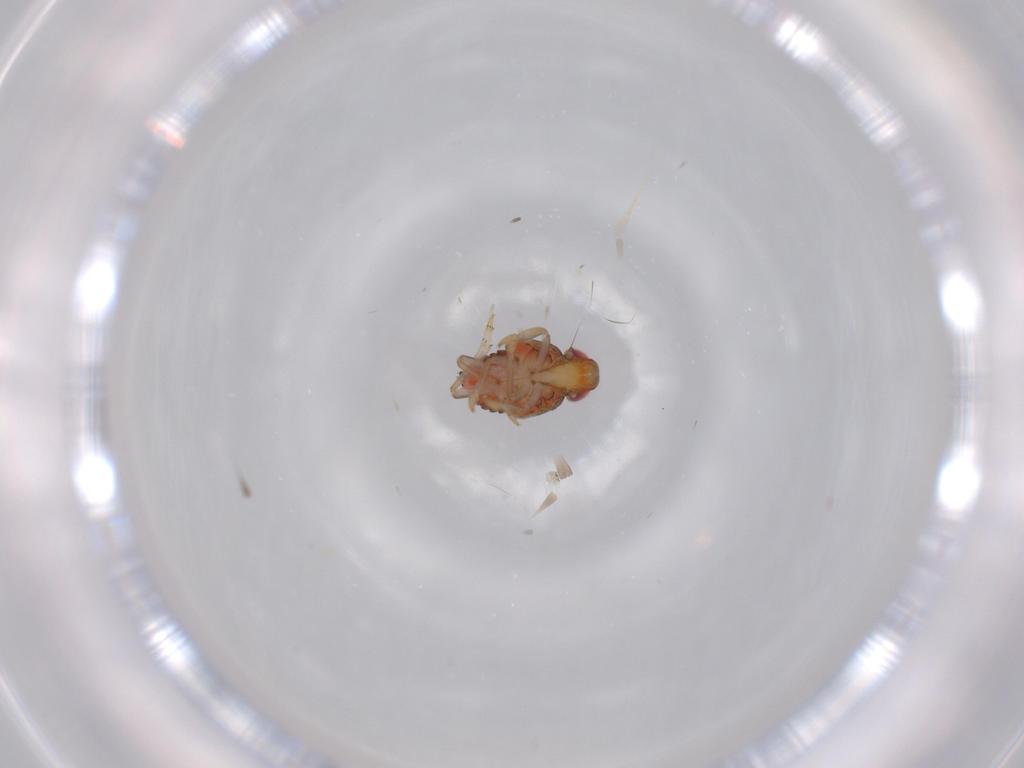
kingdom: Animalia
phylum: Arthropoda
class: Insecta
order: Hemiptera
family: Issidae
